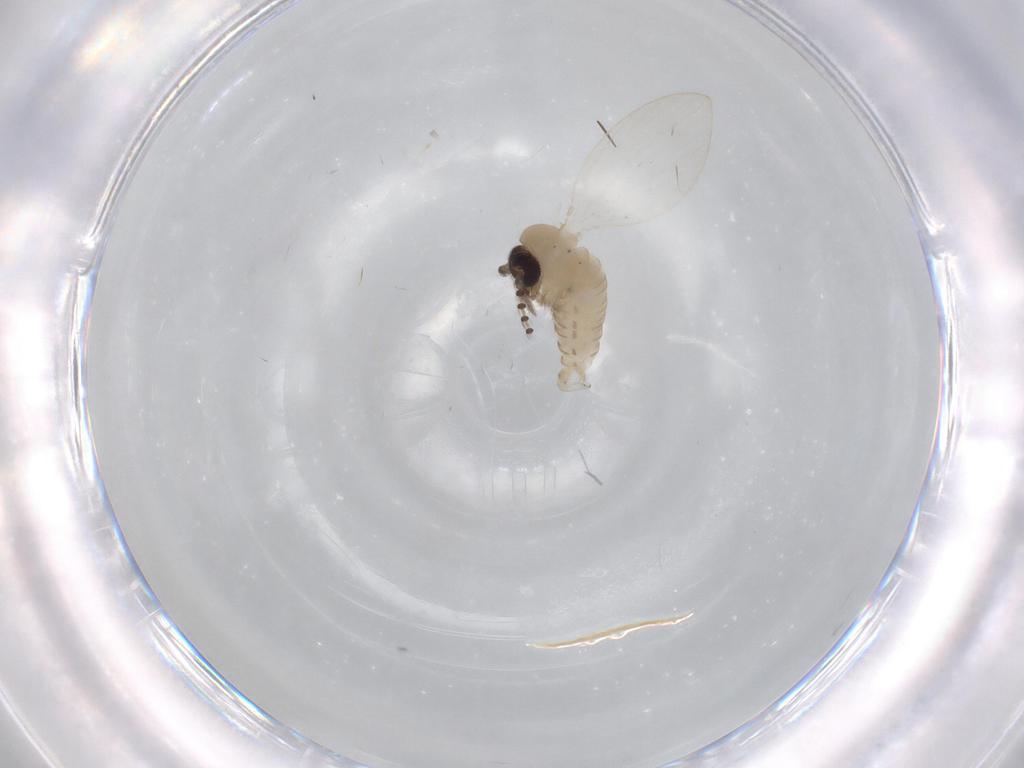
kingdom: Animalia
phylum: Arthropoda
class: Insecta
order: Diptera
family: Psychodidae
